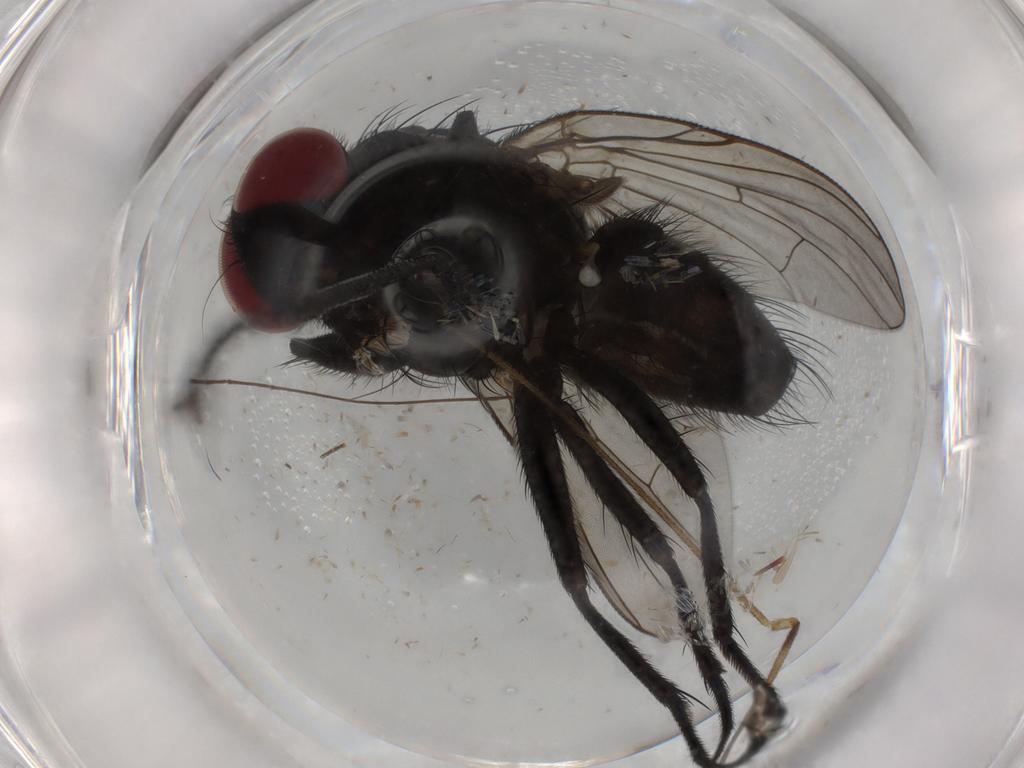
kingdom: Animalia
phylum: Arthropoda
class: Insecta
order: Diptera
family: Muscidae
